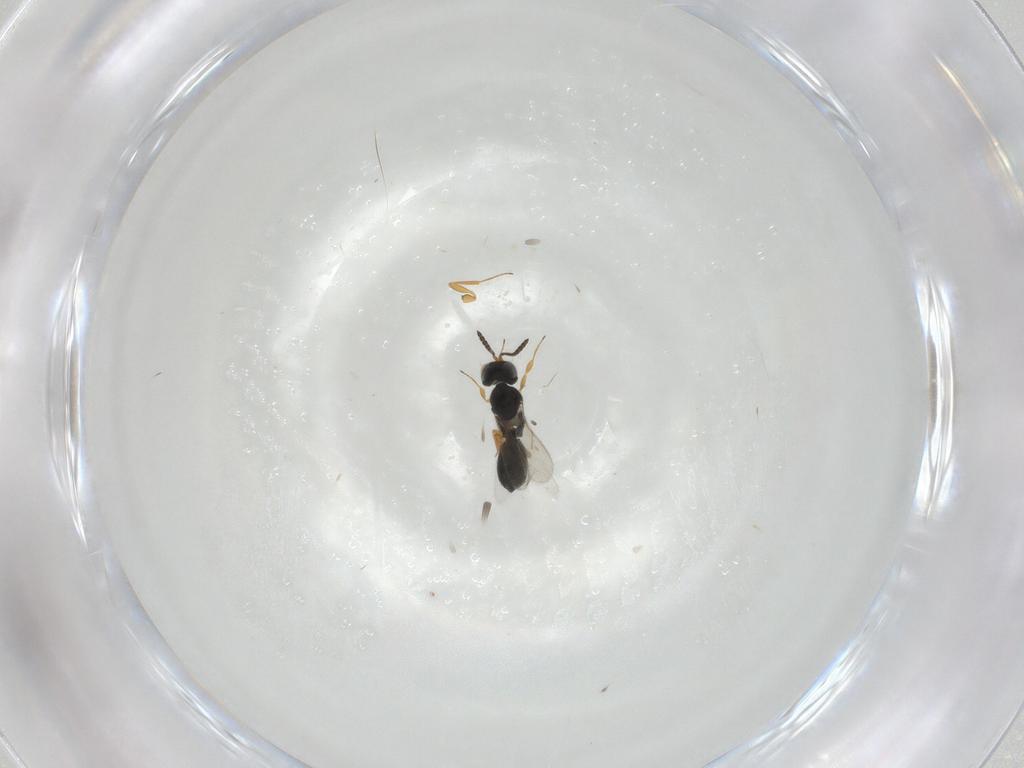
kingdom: Animalia
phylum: Arthropoda
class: Insecta
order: Hymenoptera
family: Scelionidae
